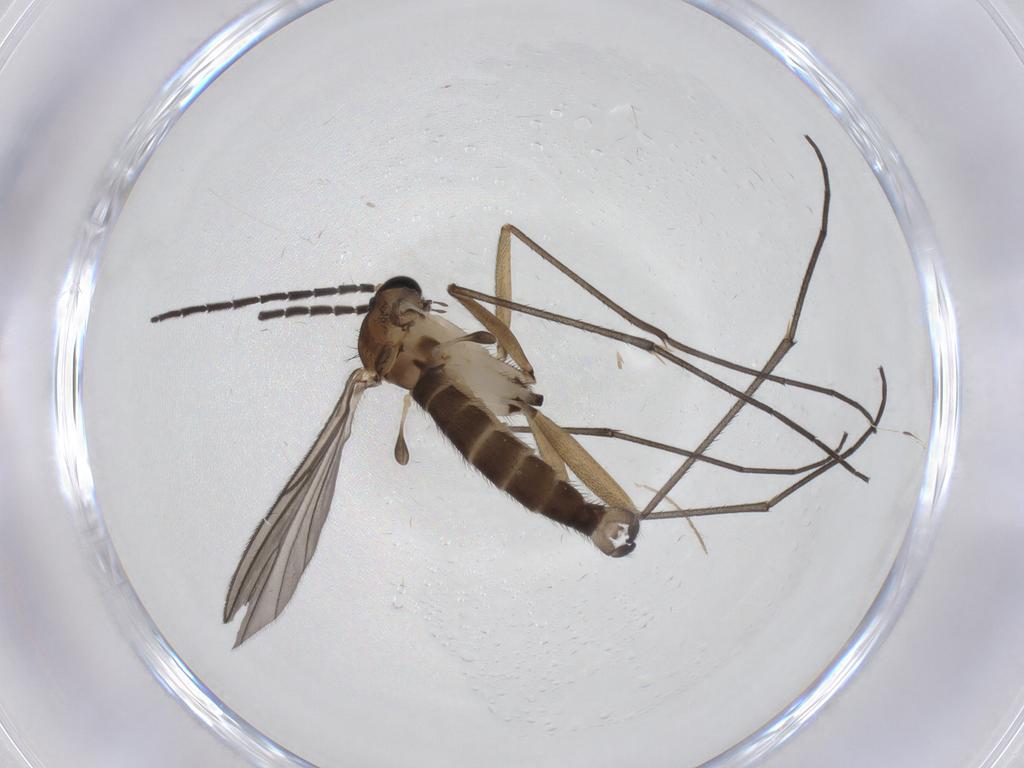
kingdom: Animalia
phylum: Arthropoda
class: Insecta
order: Diptera
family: Sciaridae
